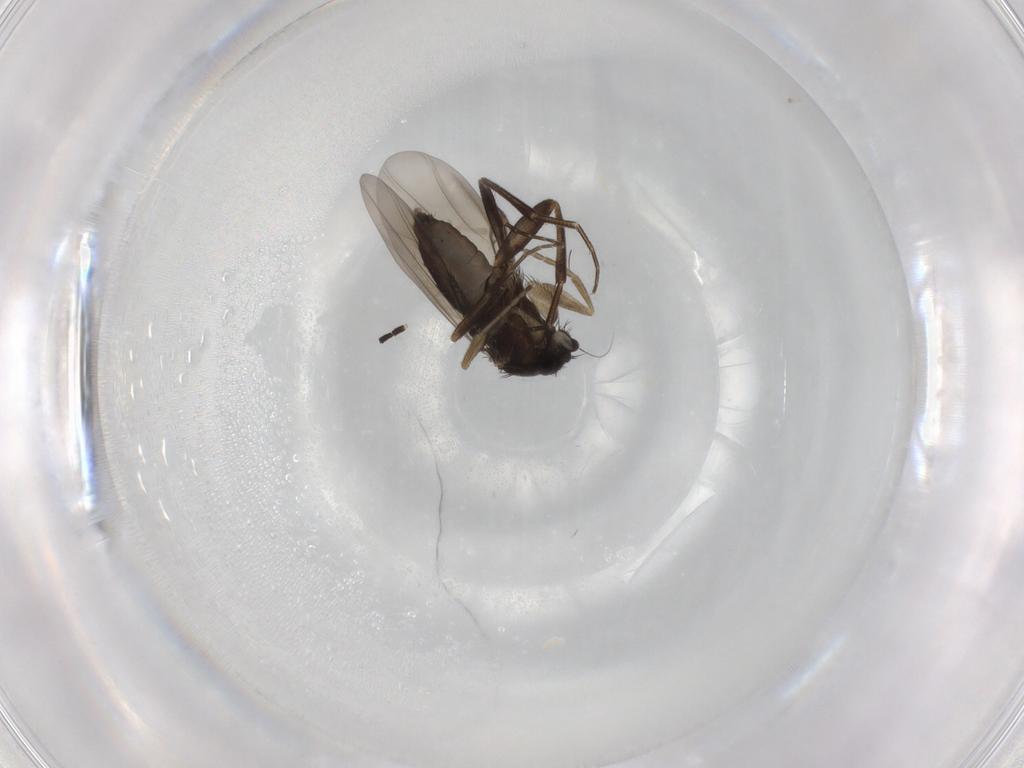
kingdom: Animalia
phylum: Arthropoda
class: Insecta
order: Diptera
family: Phoridae
